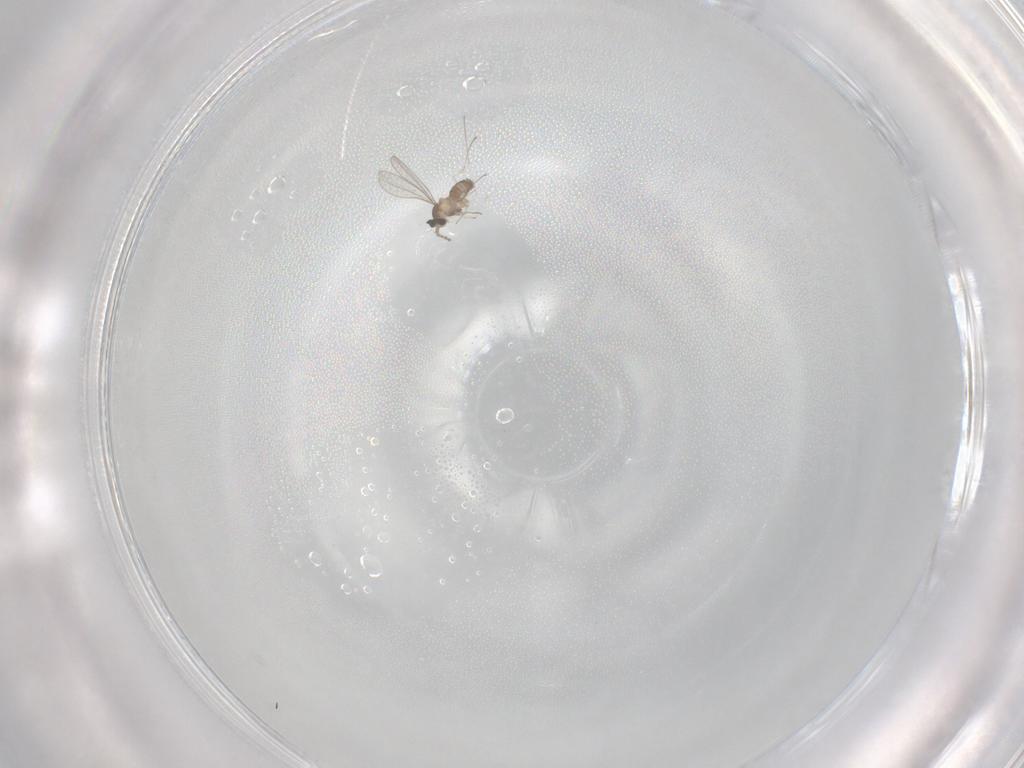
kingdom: Animalia
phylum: Arthropoda
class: Insecta
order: Diptera
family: Cecidomyiidae
